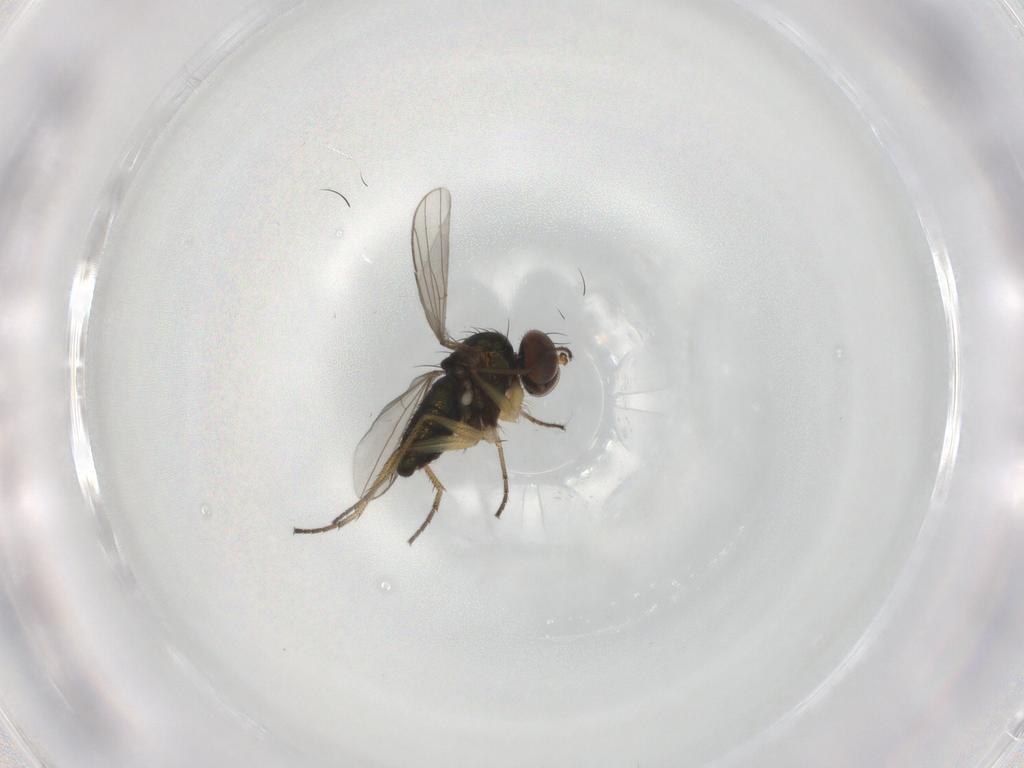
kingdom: Animalia
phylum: Arthropoda
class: Insecta
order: Diptera
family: Dolichopodidae
